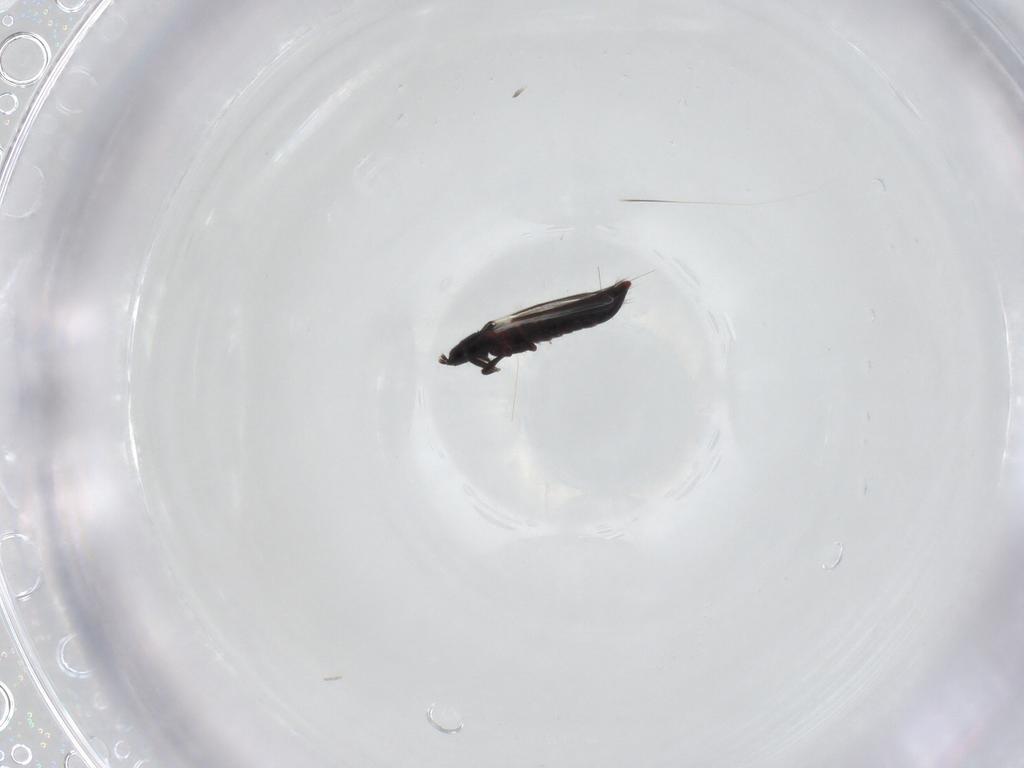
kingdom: Animalia
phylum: Arthropoda
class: Insecta
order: Thysanoptera
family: Aeolothripidae
